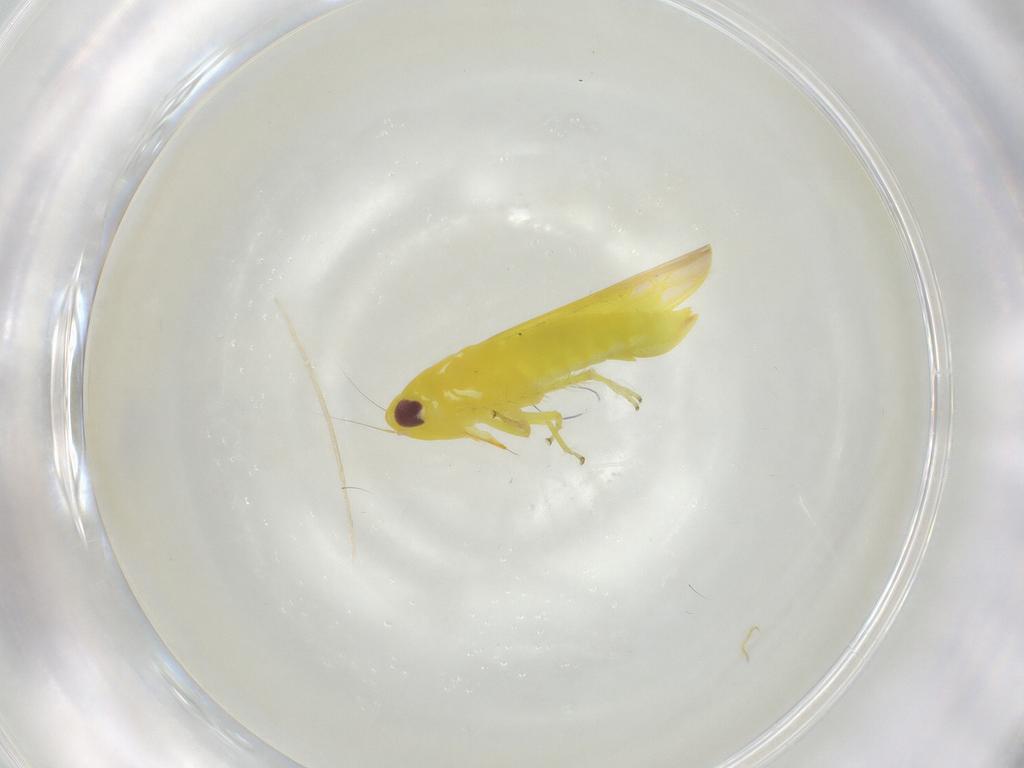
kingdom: Animalia
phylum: Arthropoda
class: Insecta
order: Hemiptera
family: Cicadellidae
